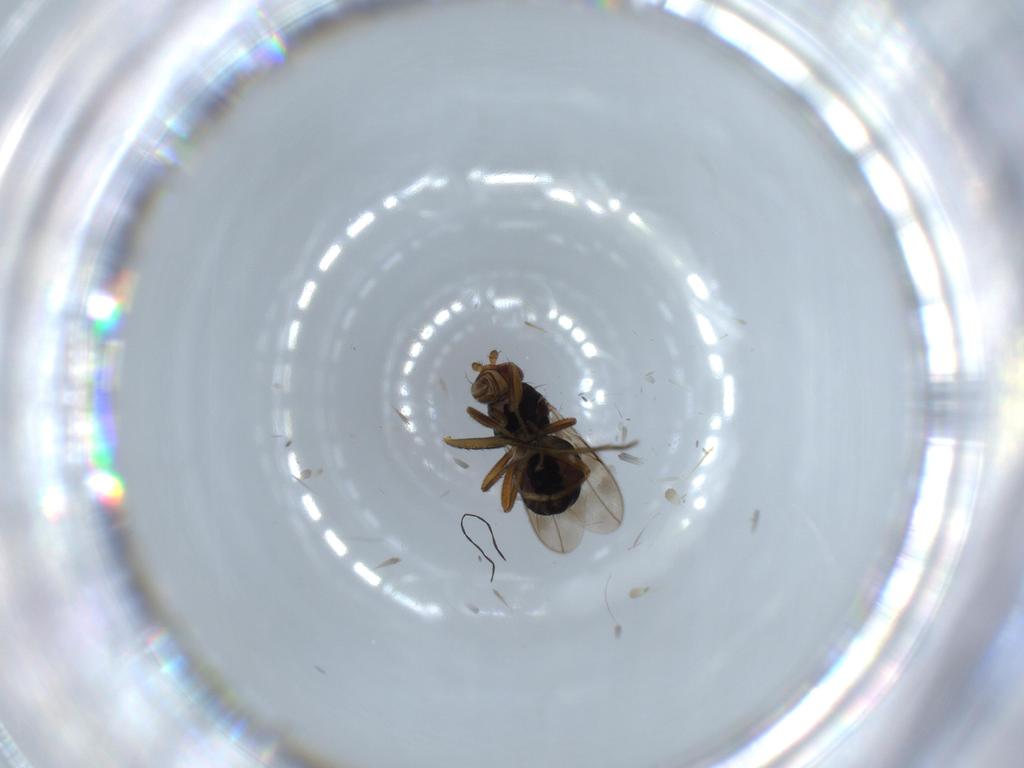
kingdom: Animalia
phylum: Arthropoda
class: Insecta
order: Diptera
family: Sphaeroceridae
